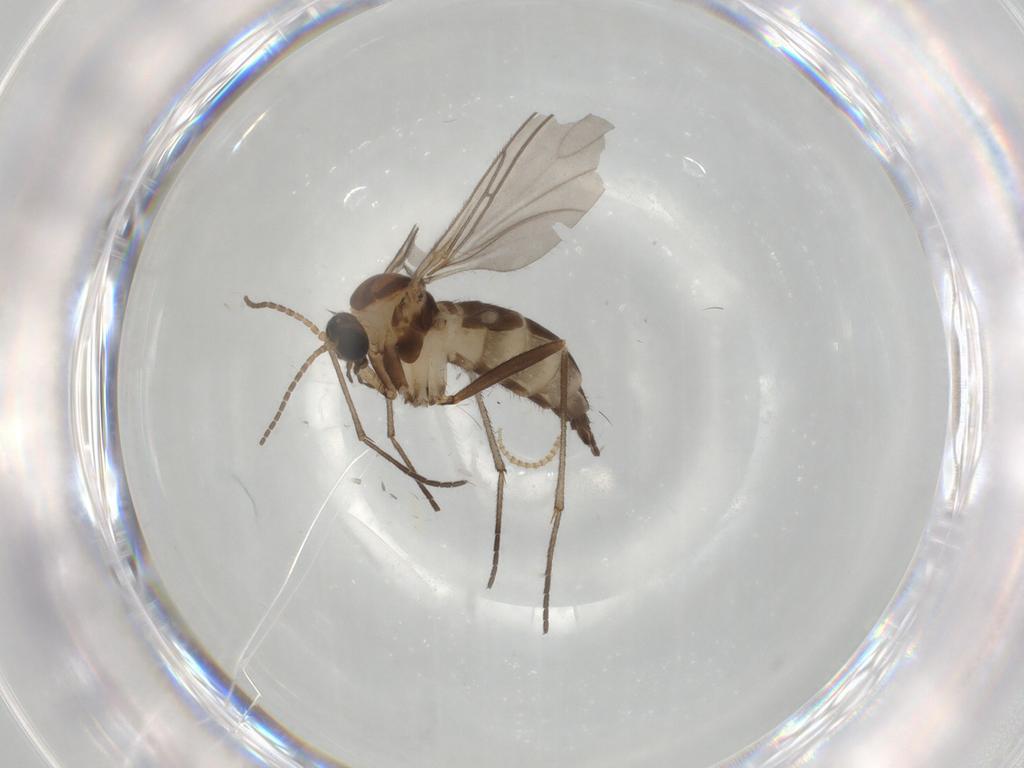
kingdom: Animalia
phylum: Arthropoda
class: Insecta
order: Diptera
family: Sciaridae
